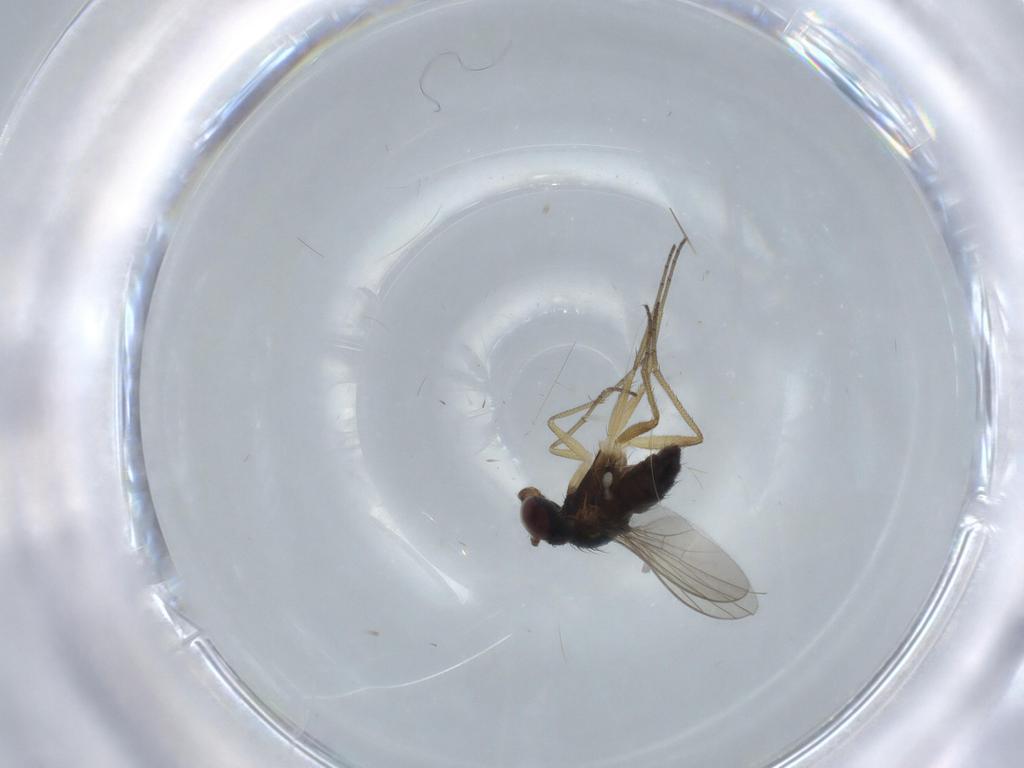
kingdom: Animalia
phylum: Arthropoda
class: Insecta
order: Diptera
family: Dolichopodidae
